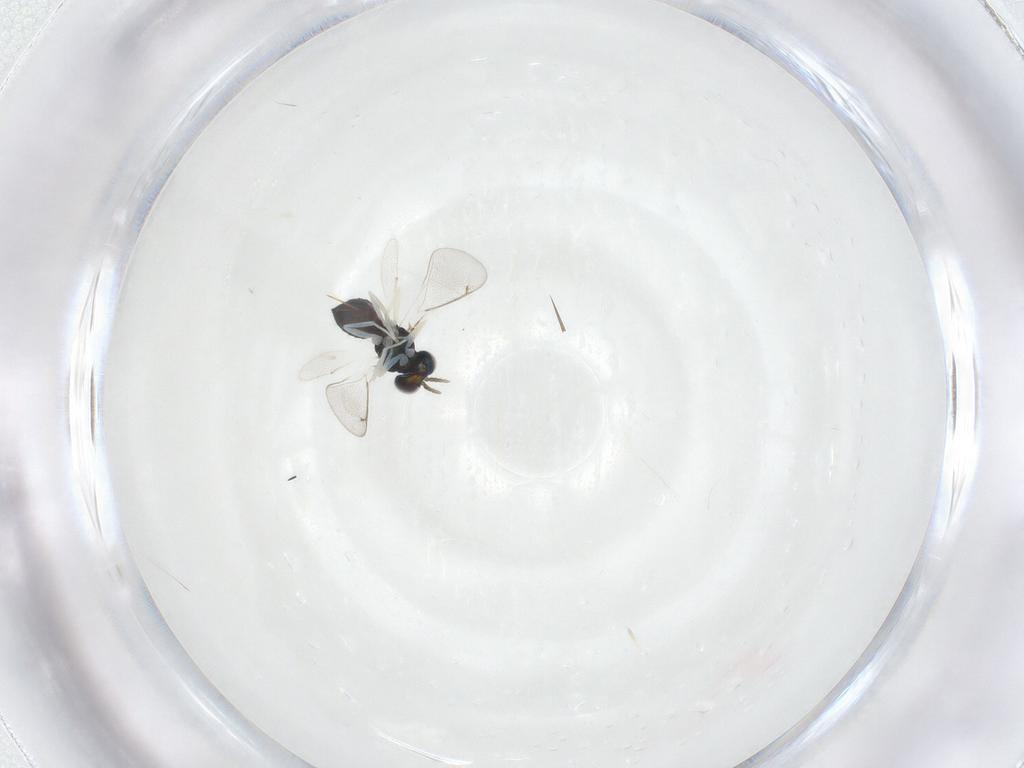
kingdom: Animalia
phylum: Arthropoda
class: Insecta
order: Hymenoptera
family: Eulophidae
